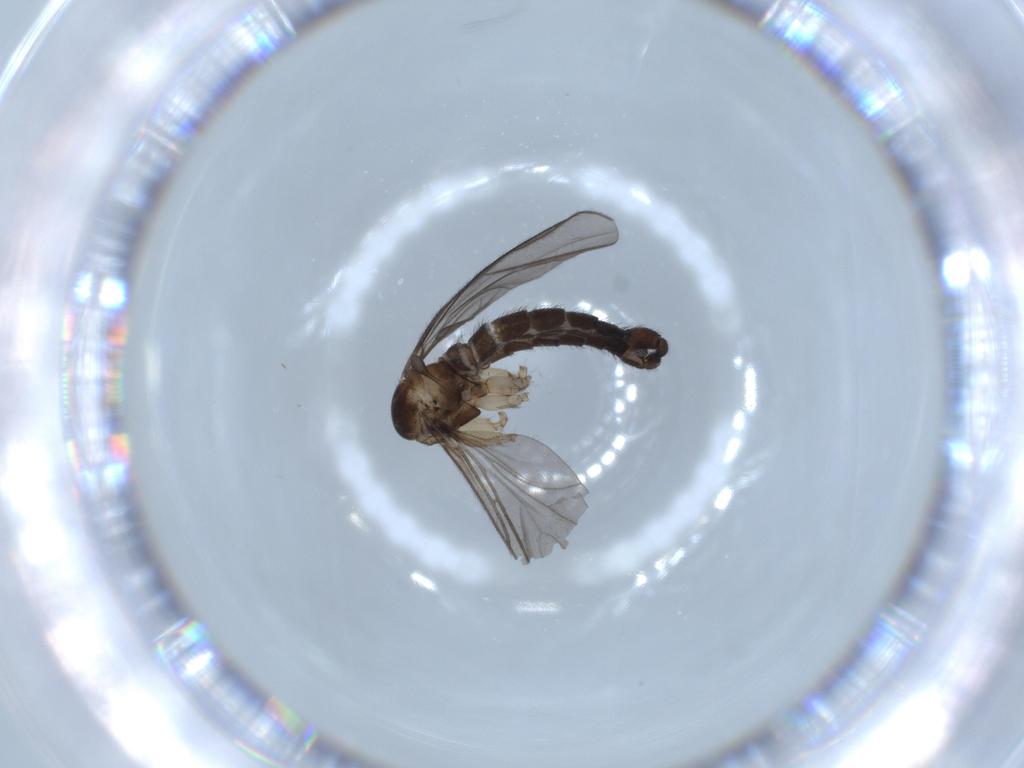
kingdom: Animalia
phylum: Arthropoda
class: Insecta
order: Diptera
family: Sciaridae
